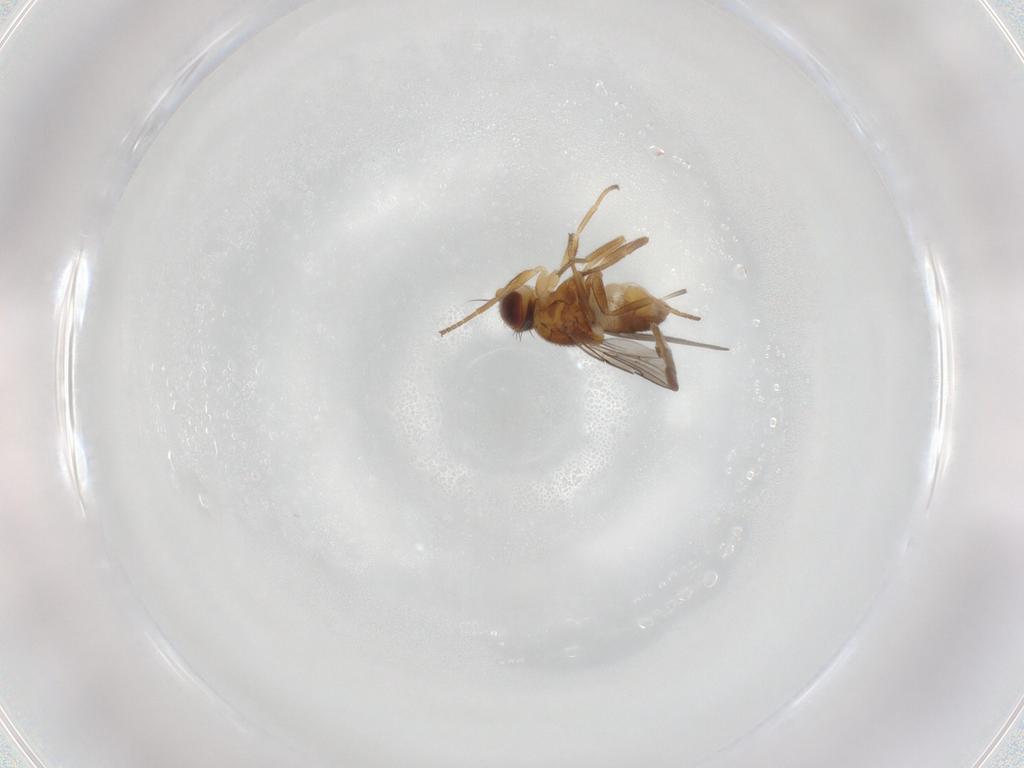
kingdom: Animalia
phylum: Arthropoda
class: Insecta
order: Diptera
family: Chloropidae
